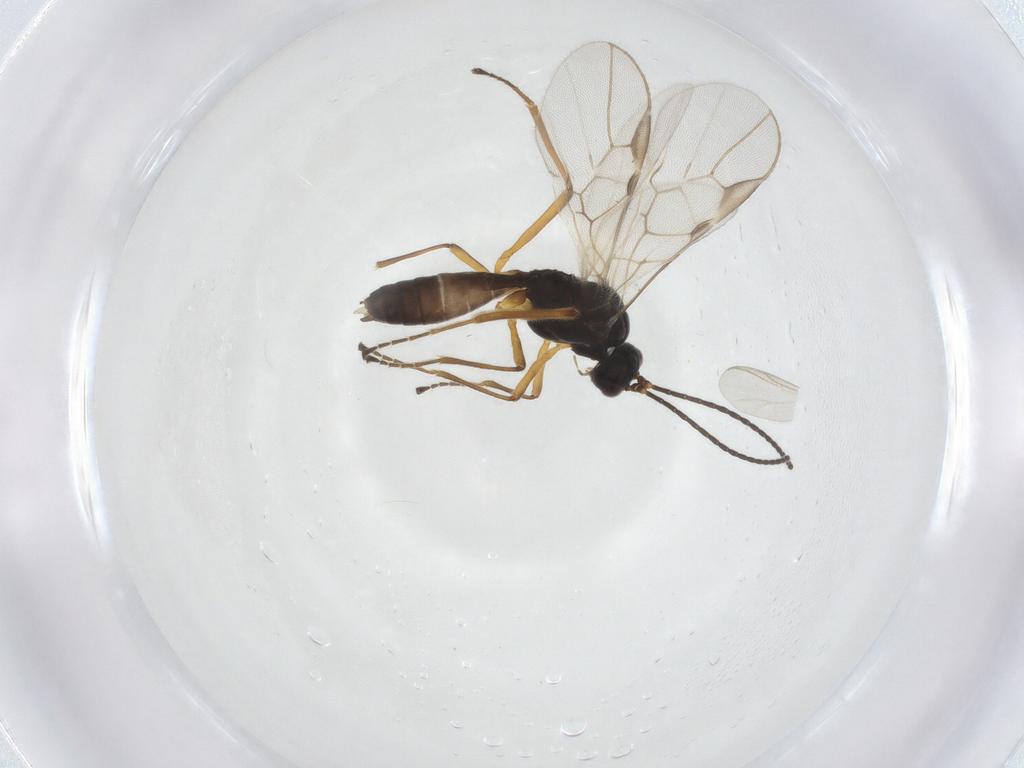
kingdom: Animalia
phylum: Arthropoda
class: Insecta
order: Hymenoptera
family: Braconidae
